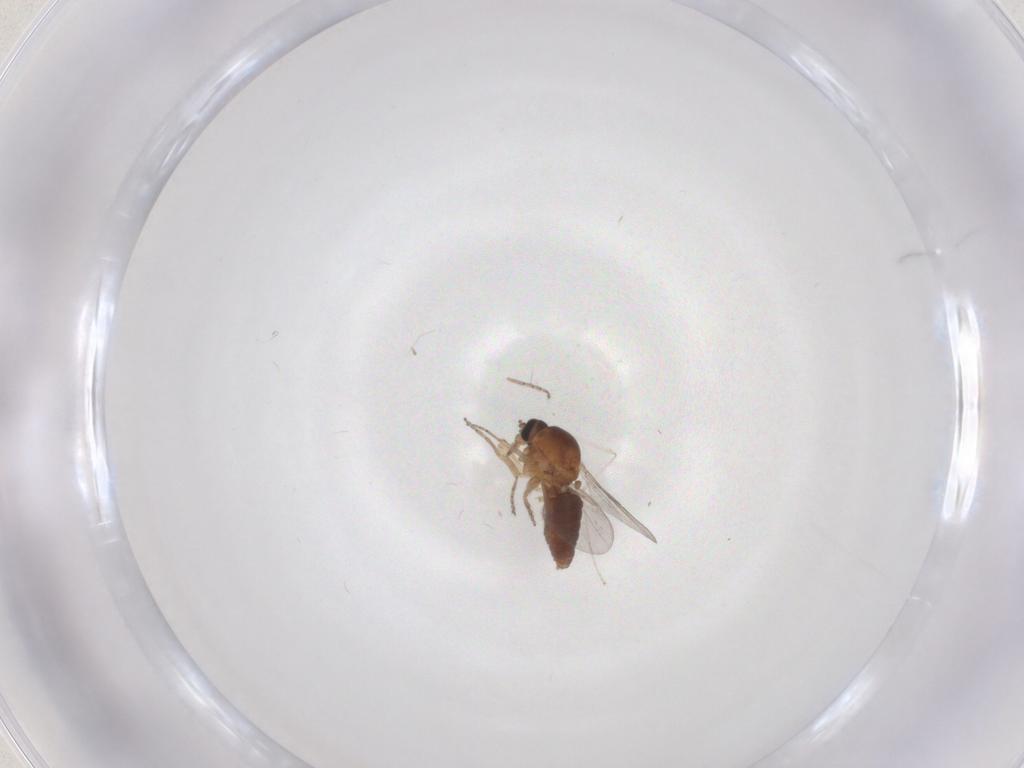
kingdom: Animalia
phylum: Arthropoda
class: Insecta
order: Diptera
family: Ceratopogonidae
